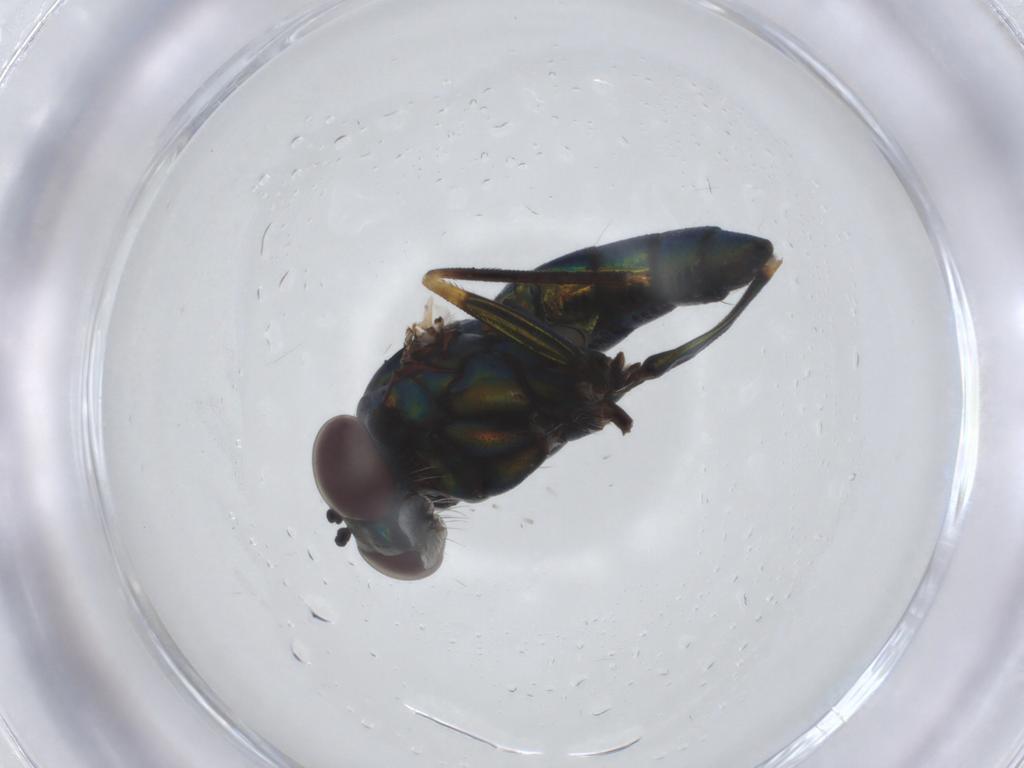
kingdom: Animalia
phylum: Arthropoda
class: Insecta
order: Diptera
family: Dolichopodidae
